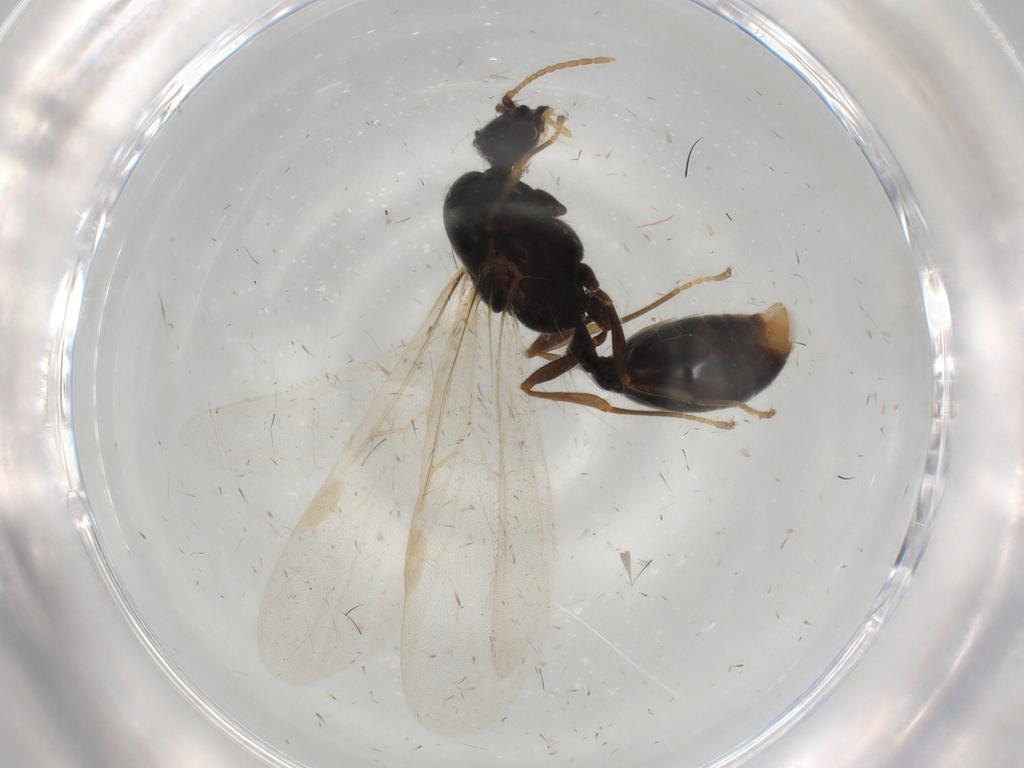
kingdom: Animalia
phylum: Arthropoda
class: Insecta
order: Hymenoptera
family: Formicidae
